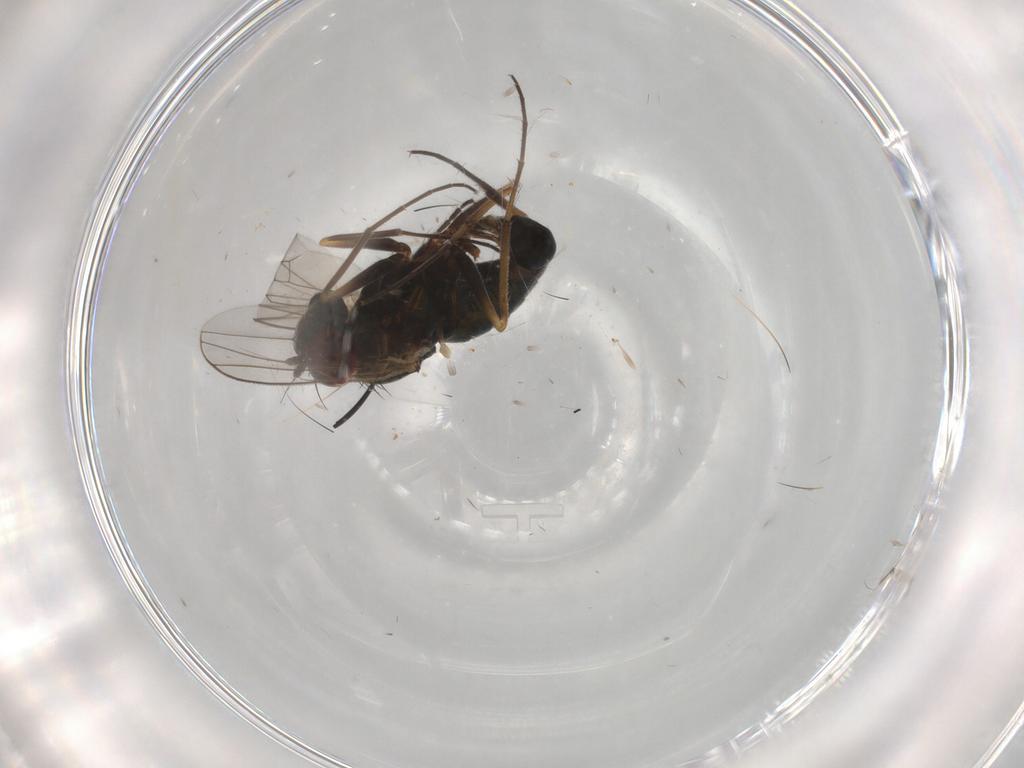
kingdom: Animalia
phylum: Arthropoda
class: Insecta
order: Diptera
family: Dolichopodidae
